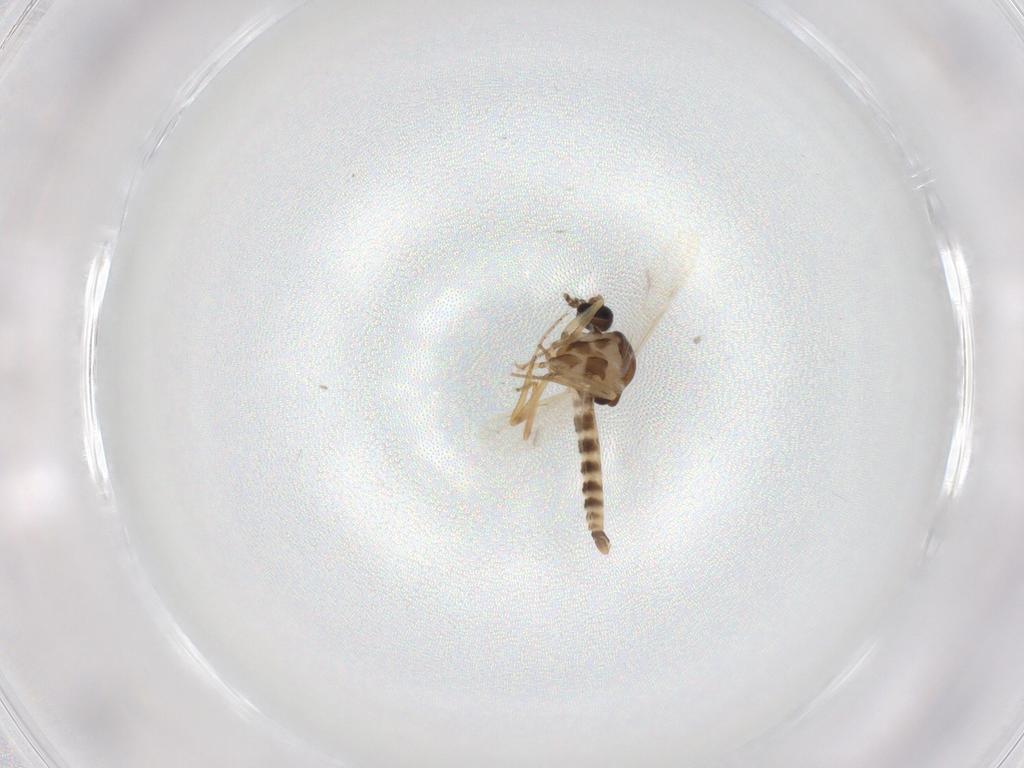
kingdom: Animalia
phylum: Arthropoda
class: Insecta
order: Diptera
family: Ceratopogonidae
